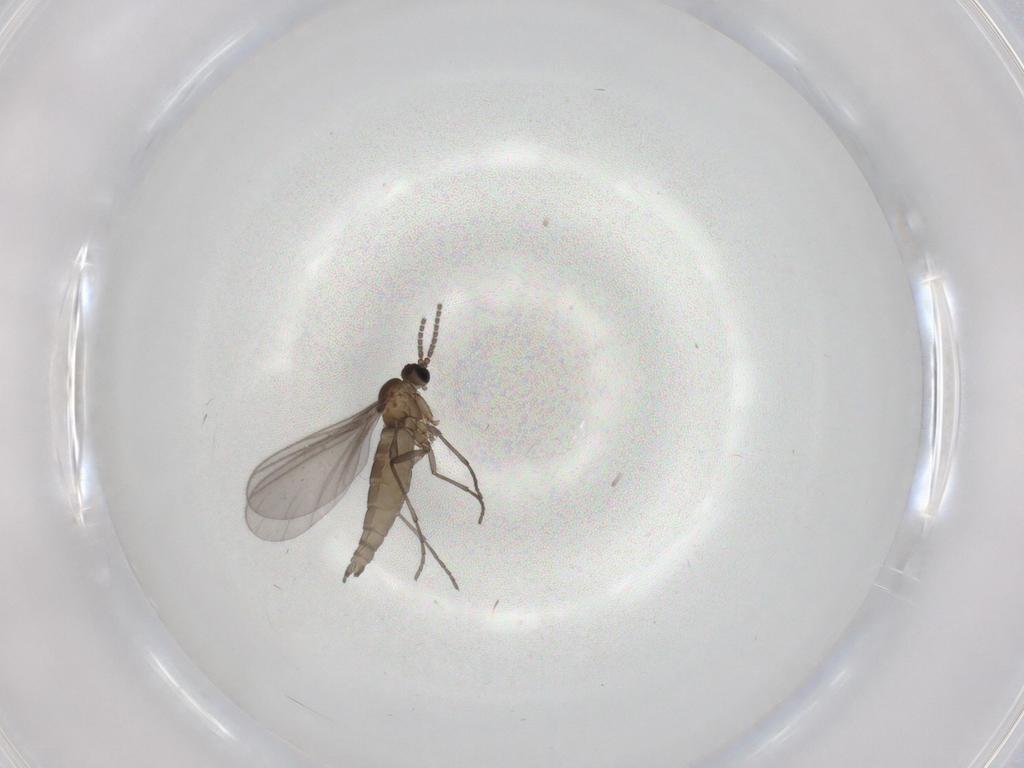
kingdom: Animalia
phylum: Arthropoda
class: Insecta
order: Diptera
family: Sciaridae
